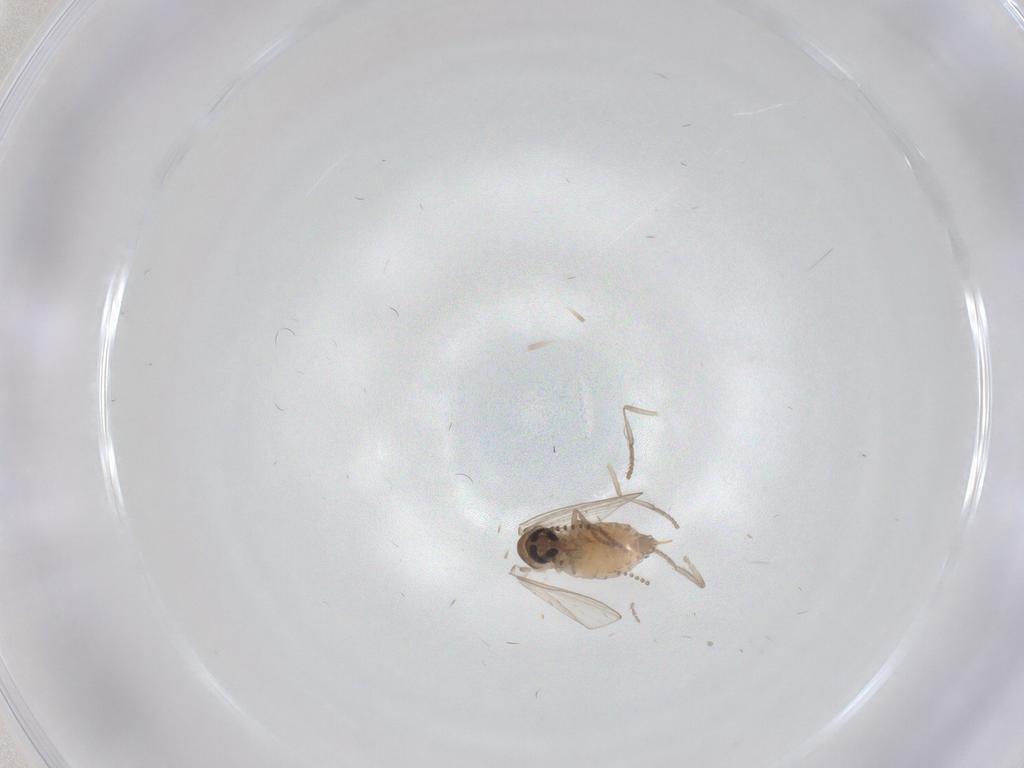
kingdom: Animalia
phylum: Arthropoda
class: Insecta
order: Diptera
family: Psychodidae
